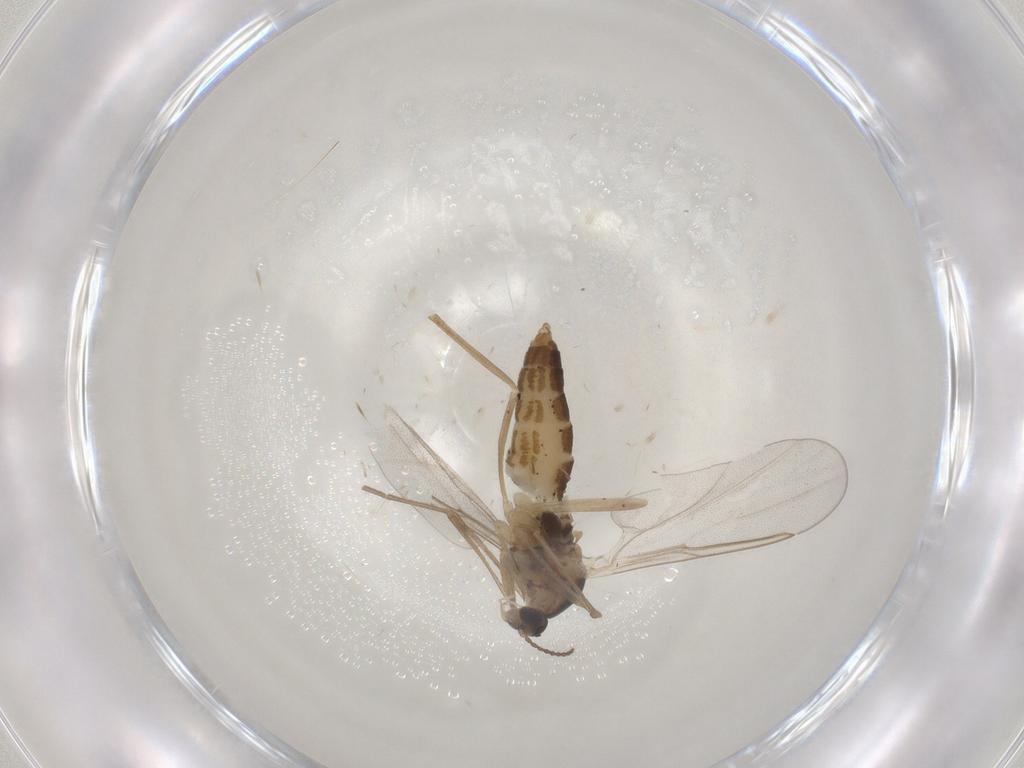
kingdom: Animalia
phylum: Arthropoda
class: Insecta
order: Diptera
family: Cecidomyiidae
